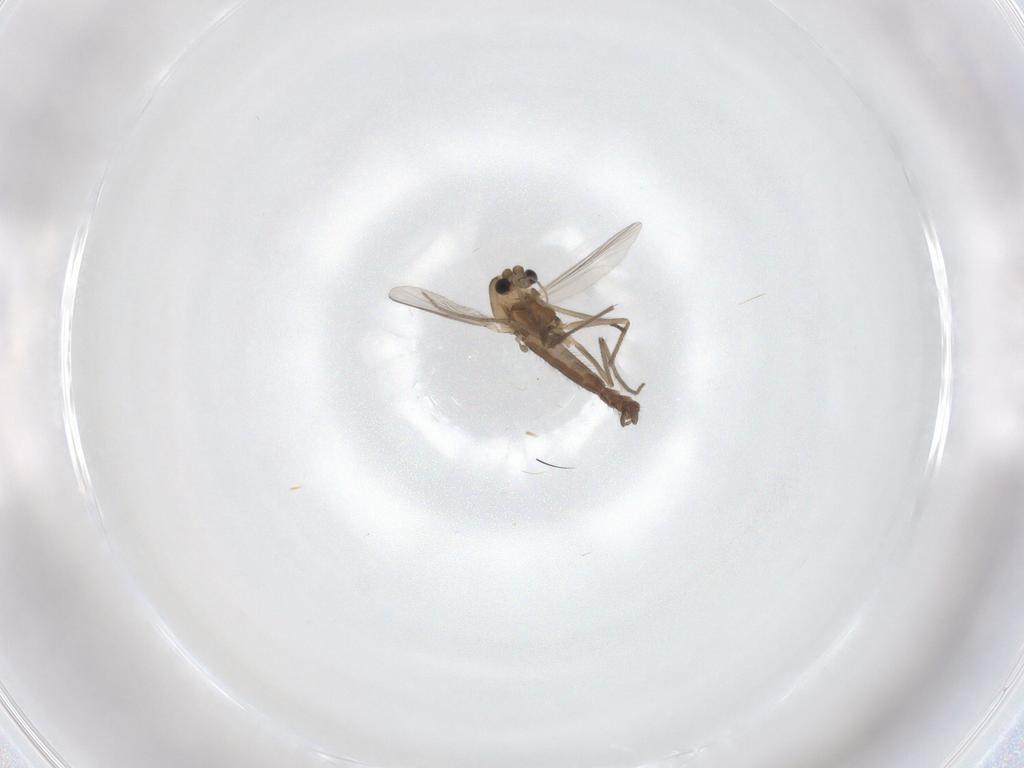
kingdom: Animalia
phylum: Arthropoda
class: Insecta
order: Diptera
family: Chironomidae
